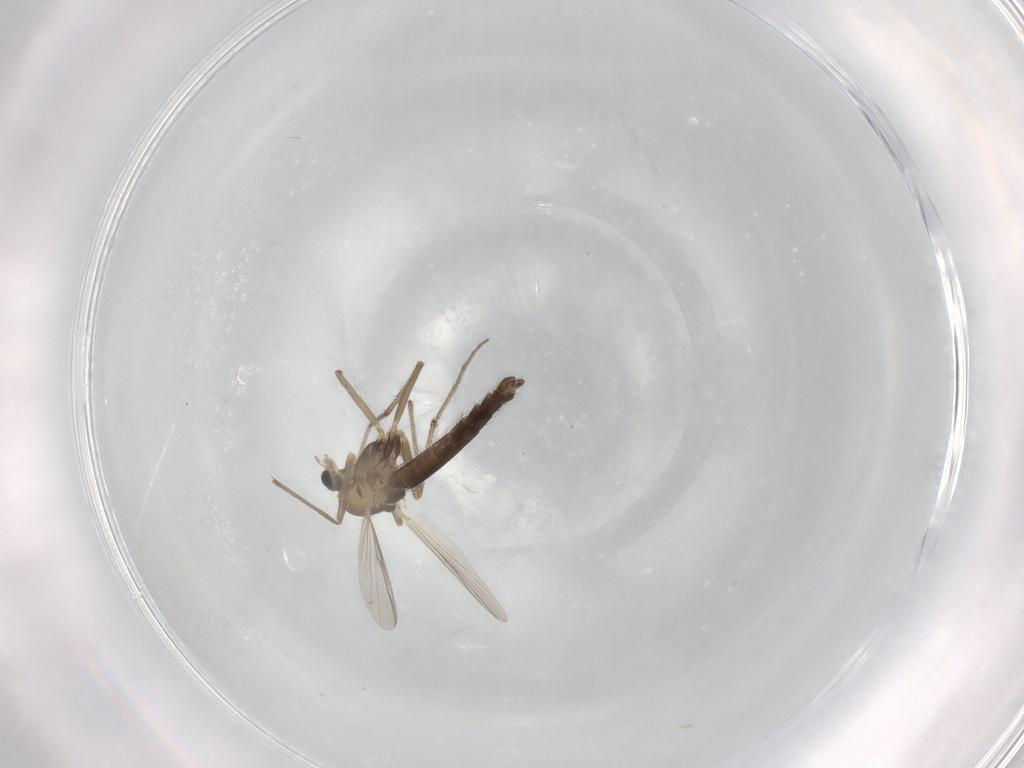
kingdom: Animalia
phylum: Arthropoda
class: Insecta
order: Diptera
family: Chironomidae
